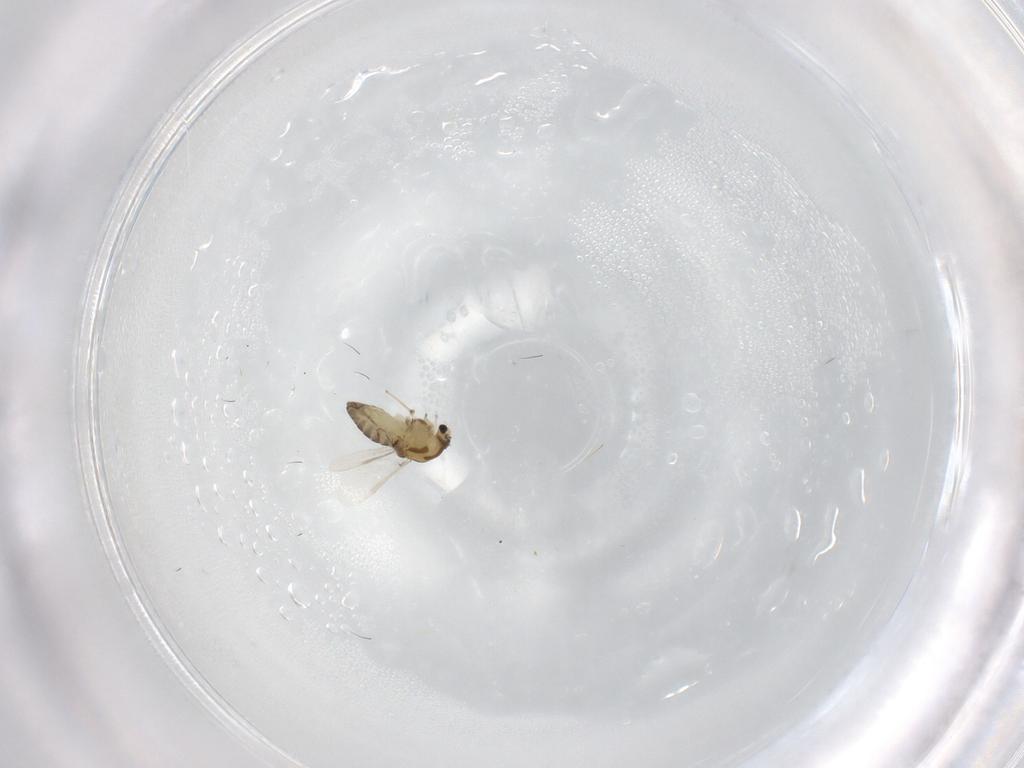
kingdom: Animalia
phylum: Arthropoda
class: Insecta
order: Diptera
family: Chironomidae
